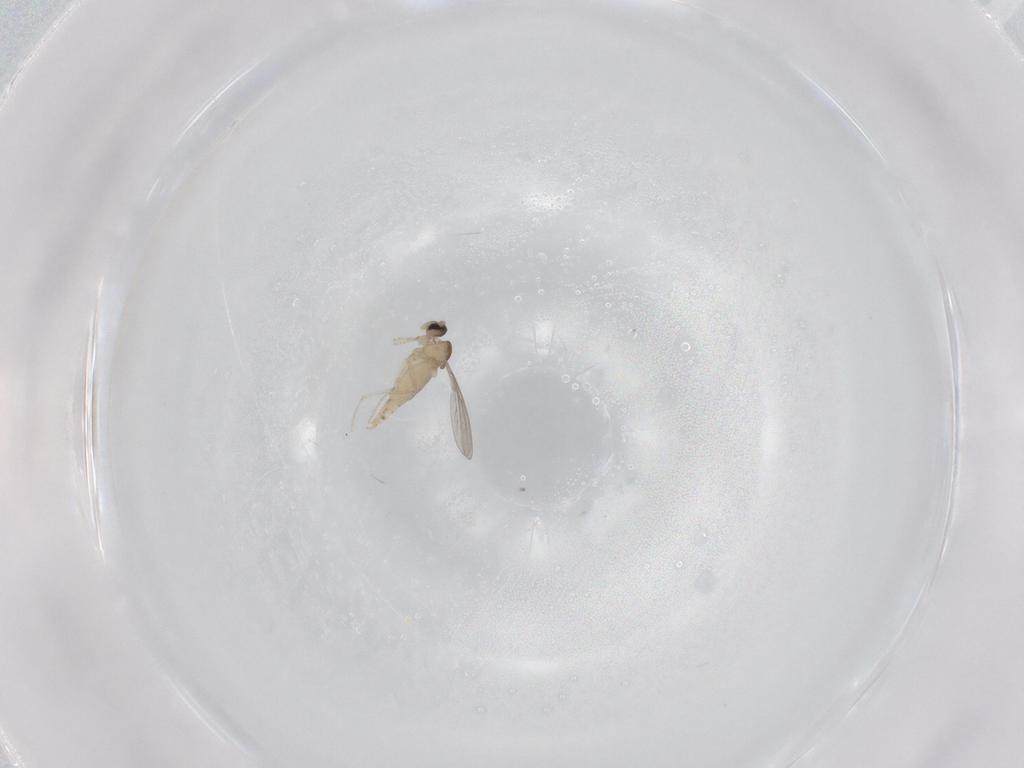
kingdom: Animalia
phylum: Arthropoda
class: Insecta
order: Diptera
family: Cecidomyiidae
